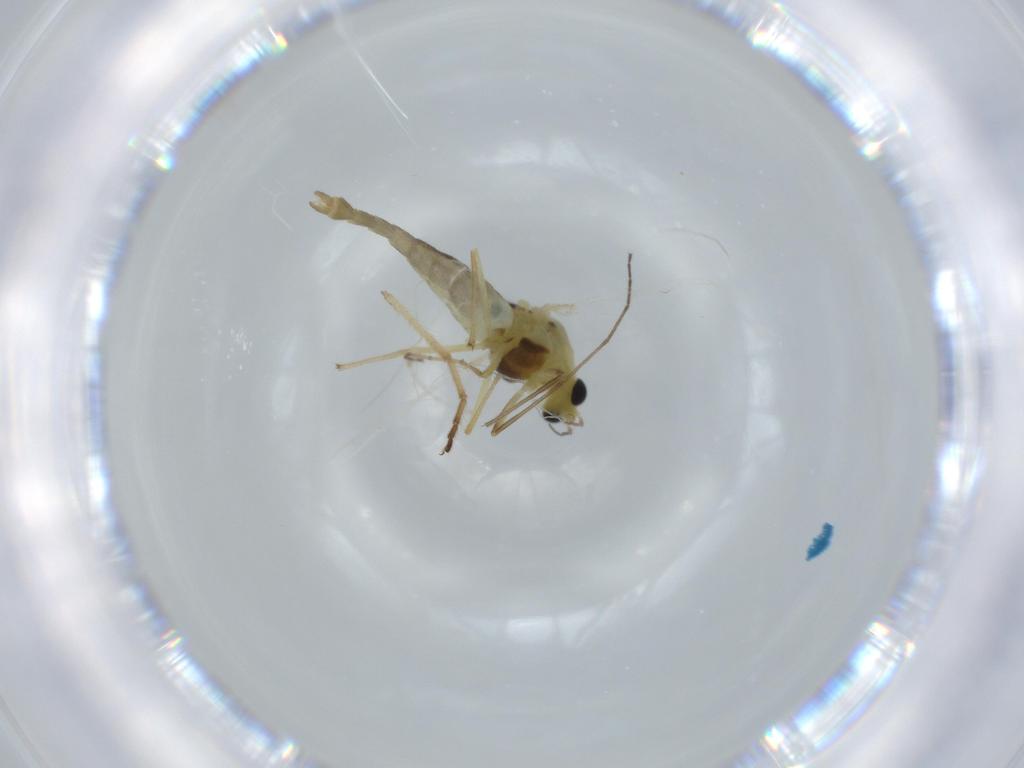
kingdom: Animalia
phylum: Arthropoda
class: Insecta
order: Diptera
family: Chironomidae
